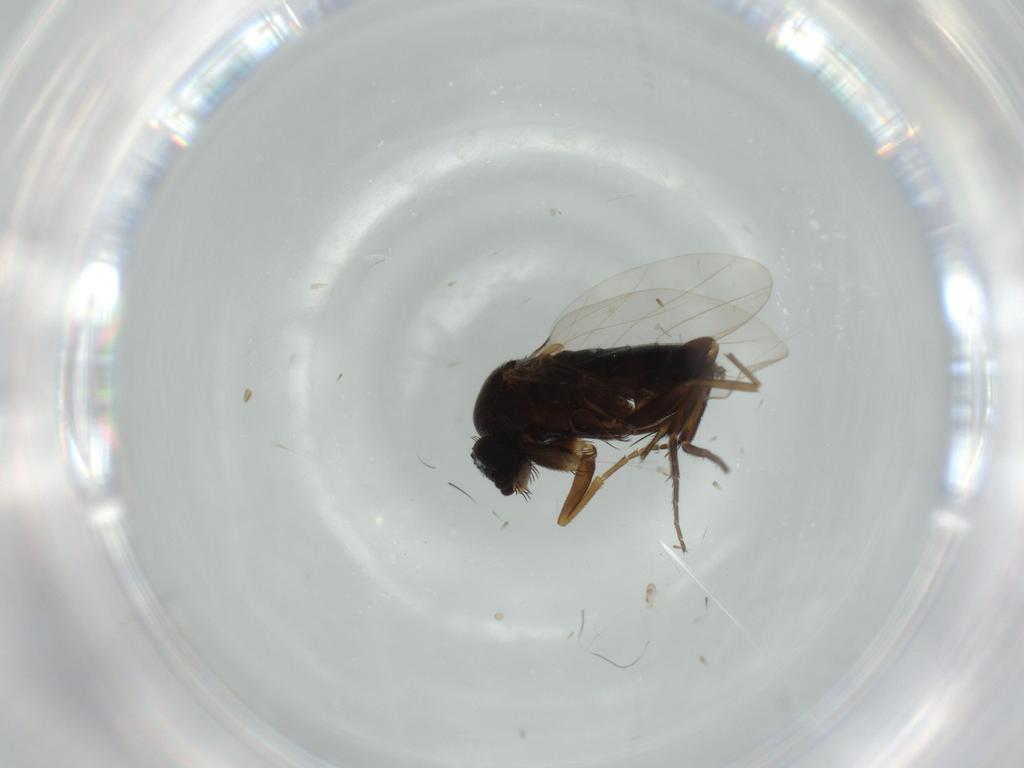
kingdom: Animalia
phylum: Arthropoda
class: Insecta
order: Diptera
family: Phoridae
